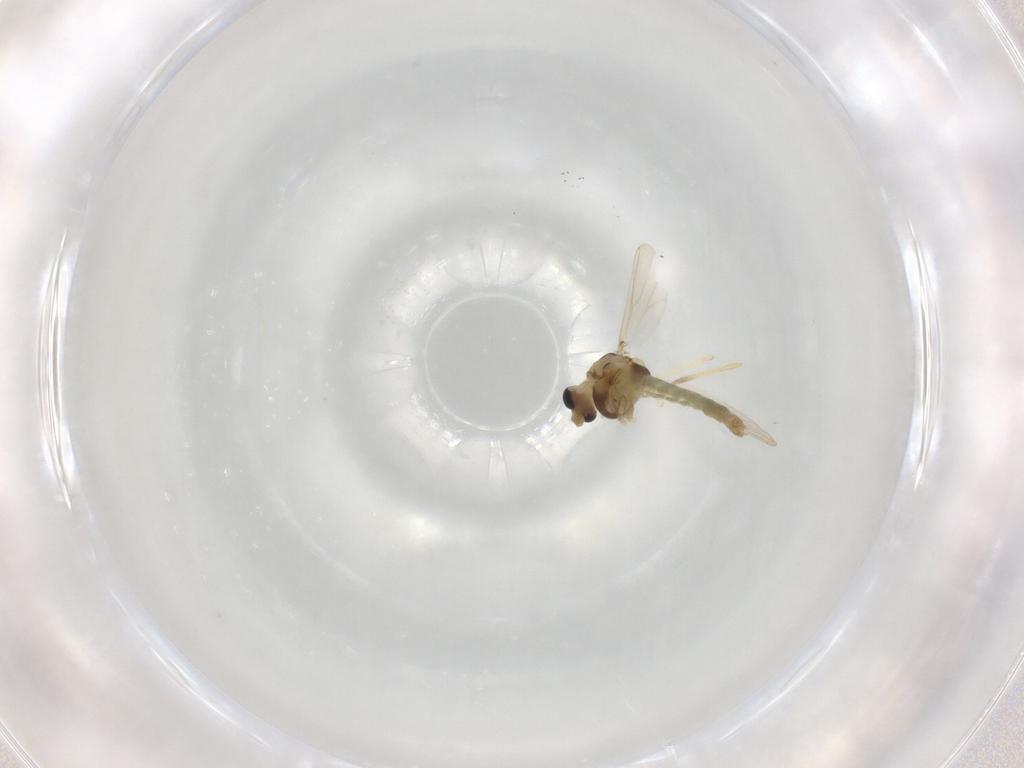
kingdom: Animalia
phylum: Arthropoda
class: Insecta
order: Diptera
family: Chironomidae
